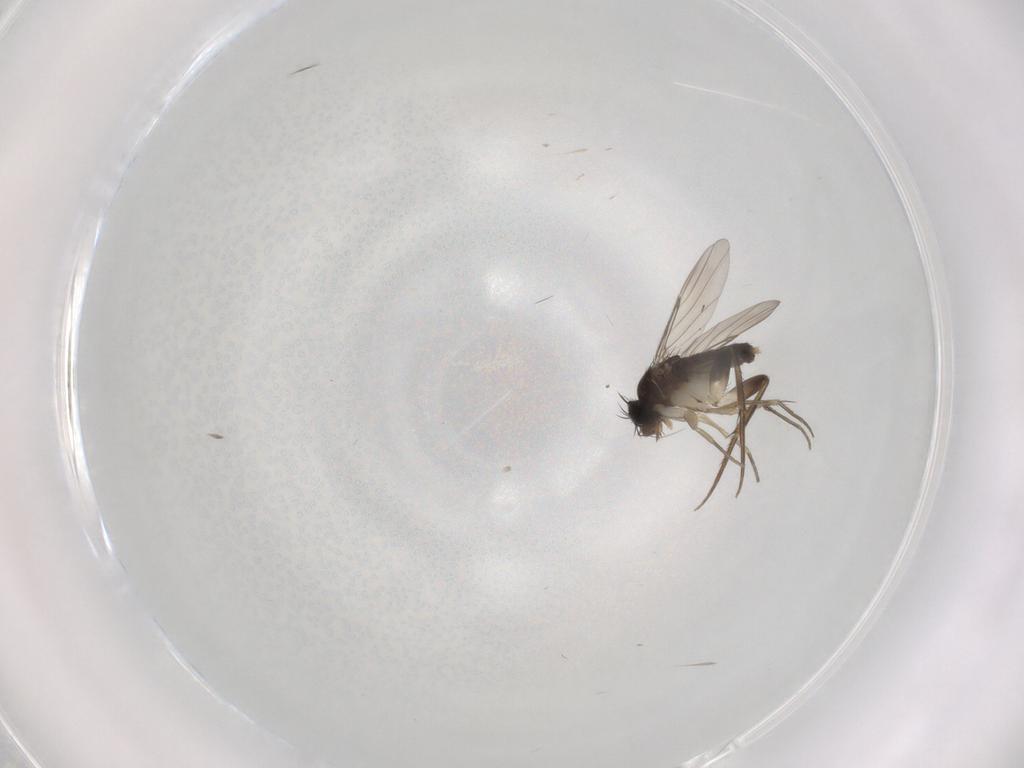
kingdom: Animalia
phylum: Arthropoda
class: Insecta
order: Diptera
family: Phoridae
